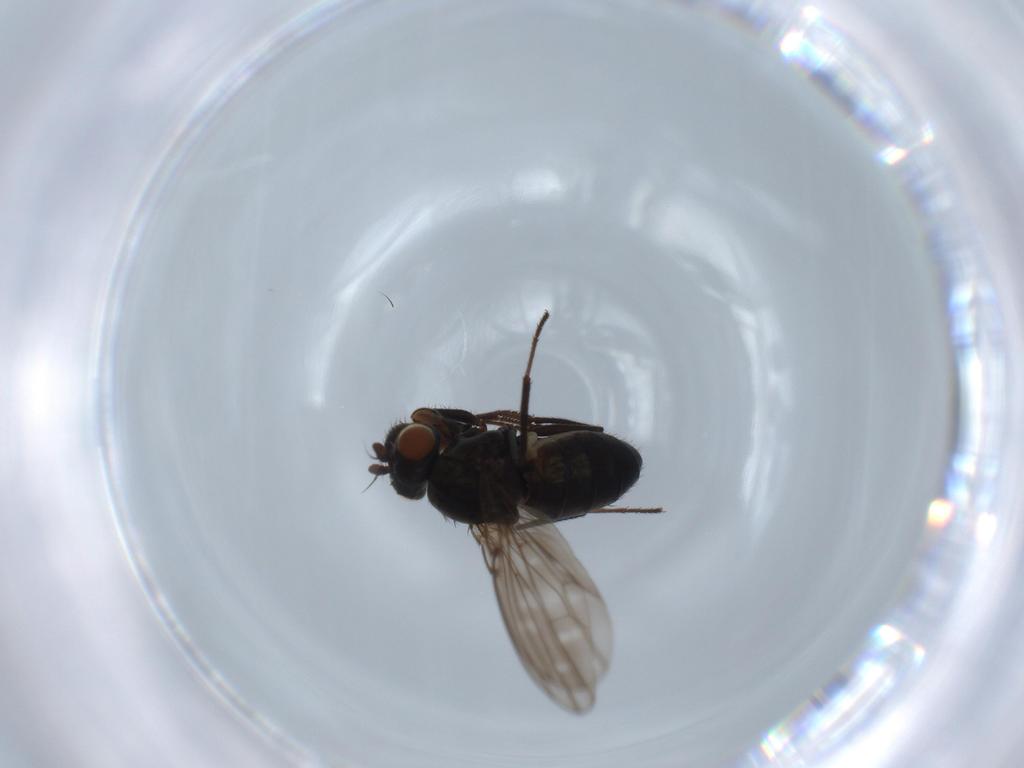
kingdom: Animalia
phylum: Arthropoda
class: Insecta
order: Diptera
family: Ephydridae
